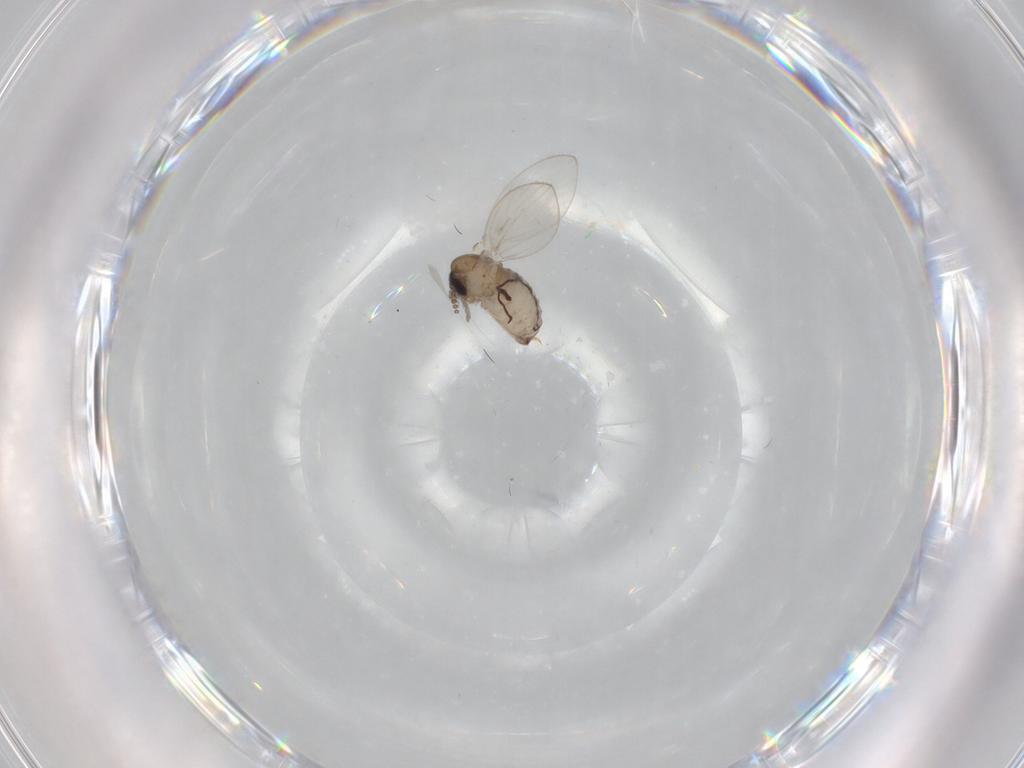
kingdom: Animalia
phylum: Arthropoda
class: Insecta
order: Diptera
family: Psychodidae
